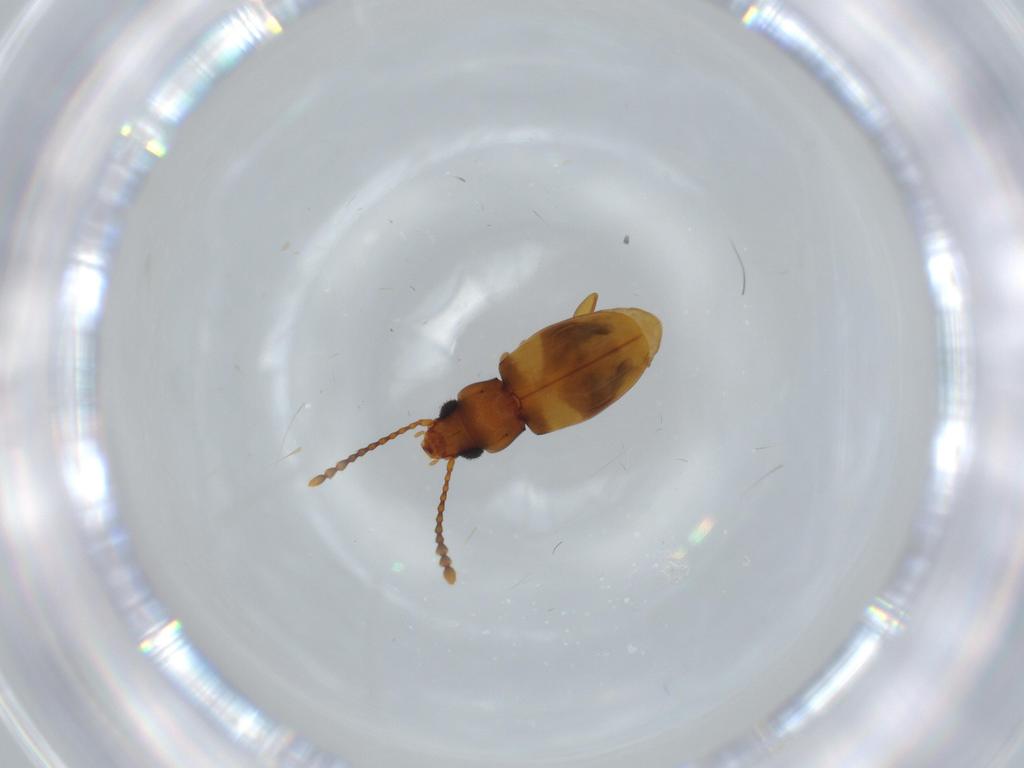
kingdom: Animalia
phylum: Arthropoda
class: Insecta
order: Coleoptera
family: Laemophloeidae
